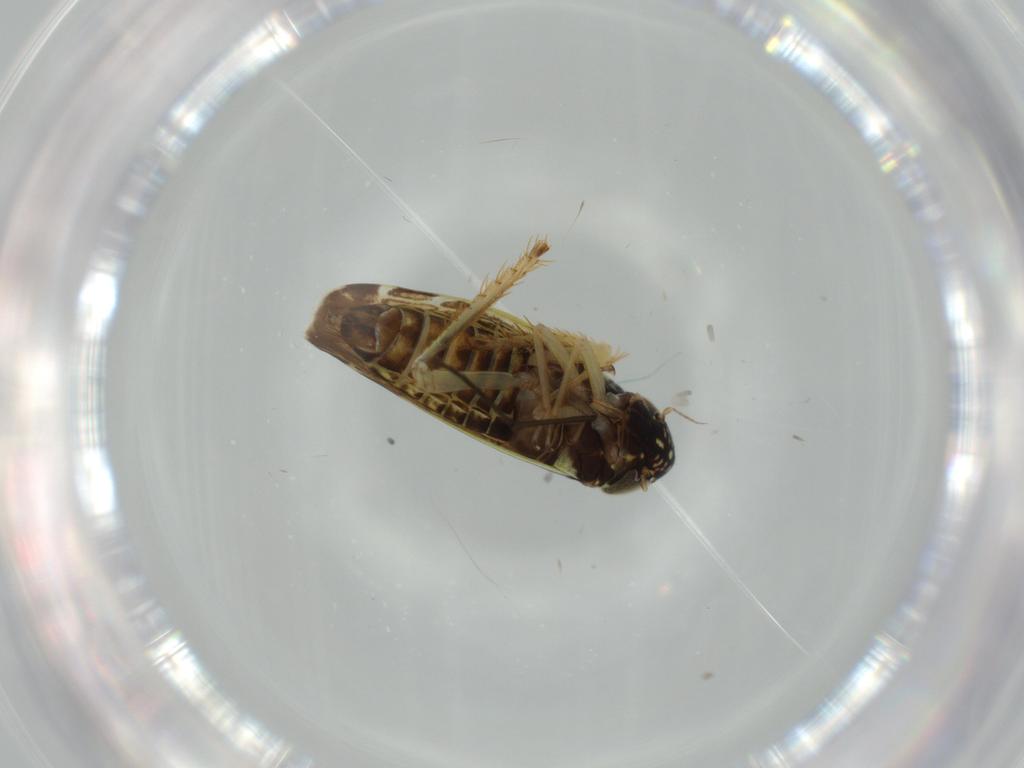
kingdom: Animalia
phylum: Arthropoda
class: Insecta
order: Hemiptera
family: Cicadellidae
